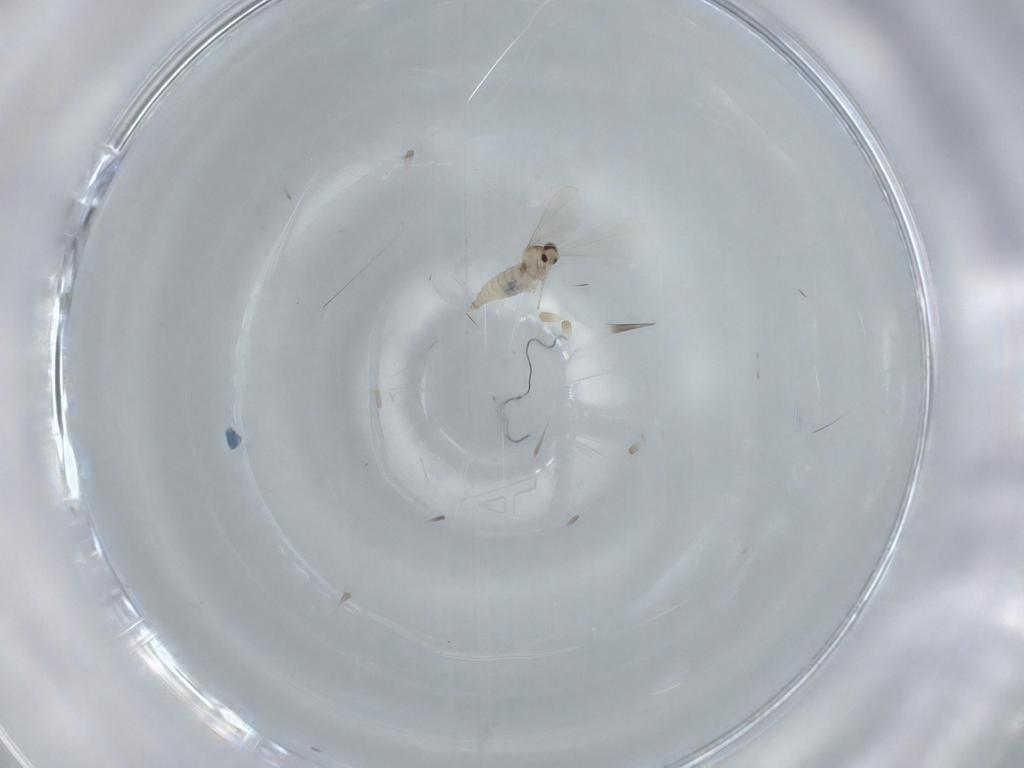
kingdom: Animalia
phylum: Arthropoda
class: Insecta
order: Diptera
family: Cecidomyiidae
